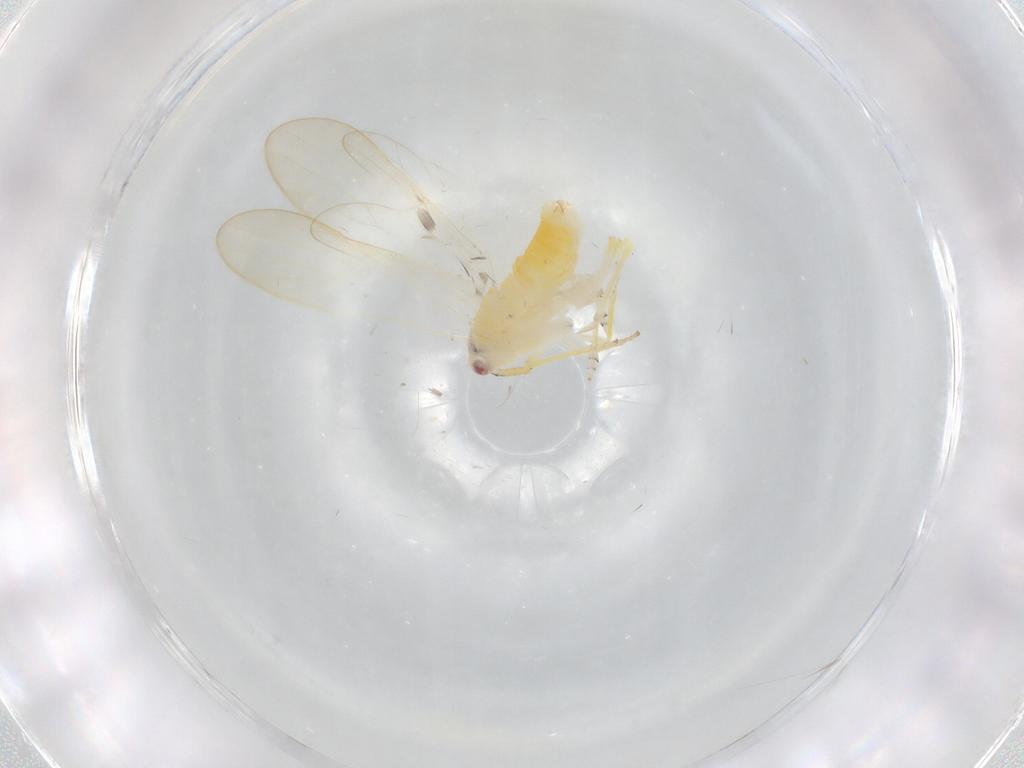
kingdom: Animalia
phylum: Arthropoda
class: Insecta
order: Hemiptera
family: Delphacidae
